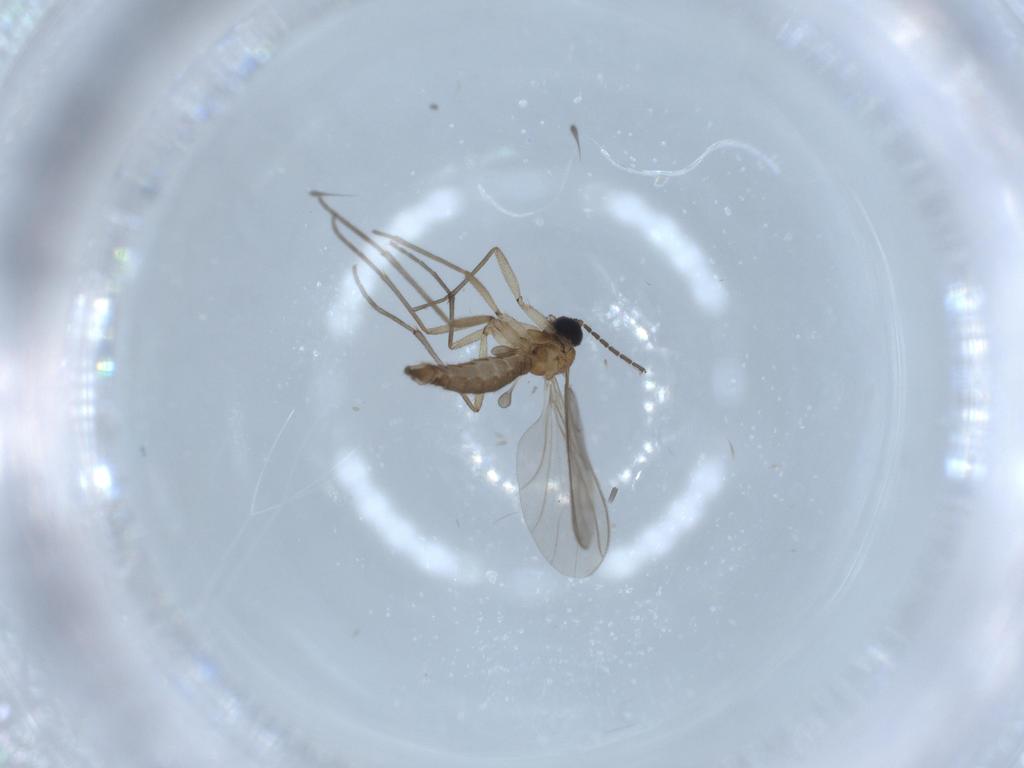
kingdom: Animalia
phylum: Arthropoda
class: Insecta
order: Diptera
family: Sciaridae
